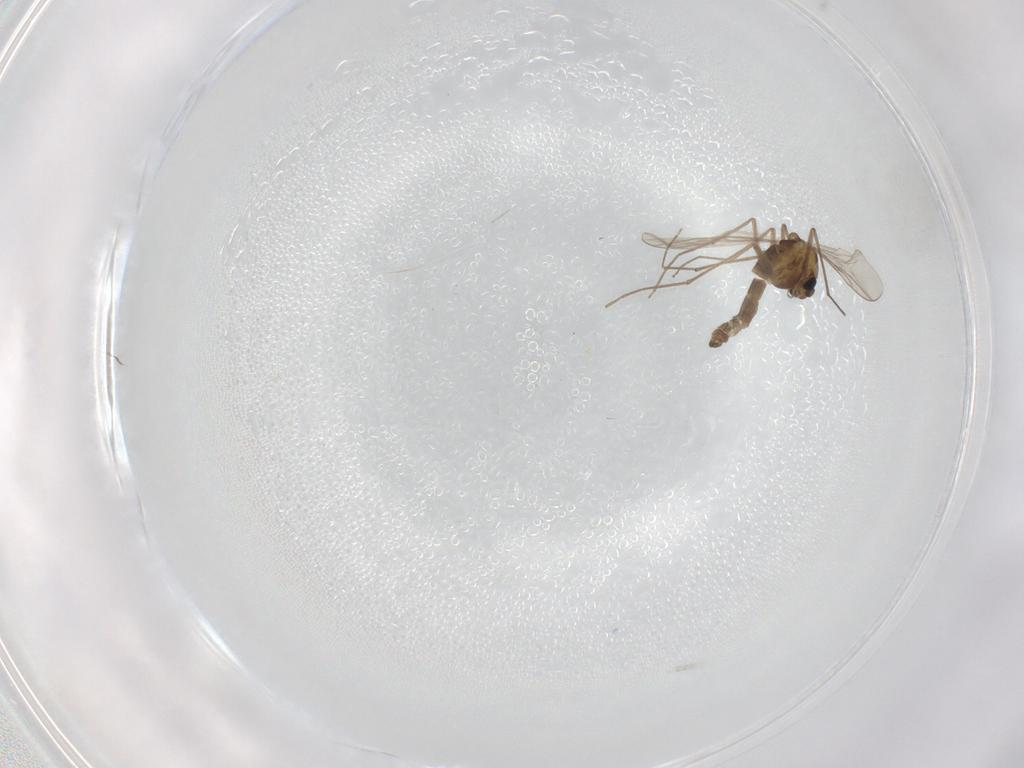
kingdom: Animalia
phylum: Arthropoda
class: Insecta
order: Diptera
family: Chironomidae
